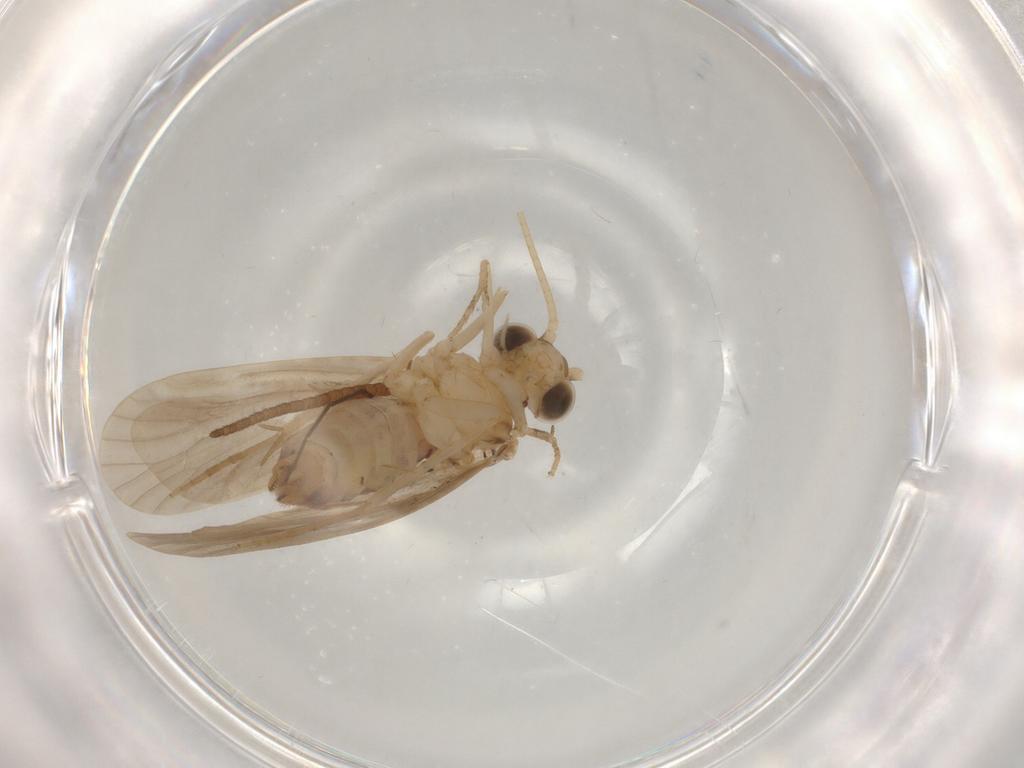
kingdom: Animalia
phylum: Arthropoda
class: Insecta
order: Trichoptera
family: Ecnomidae
